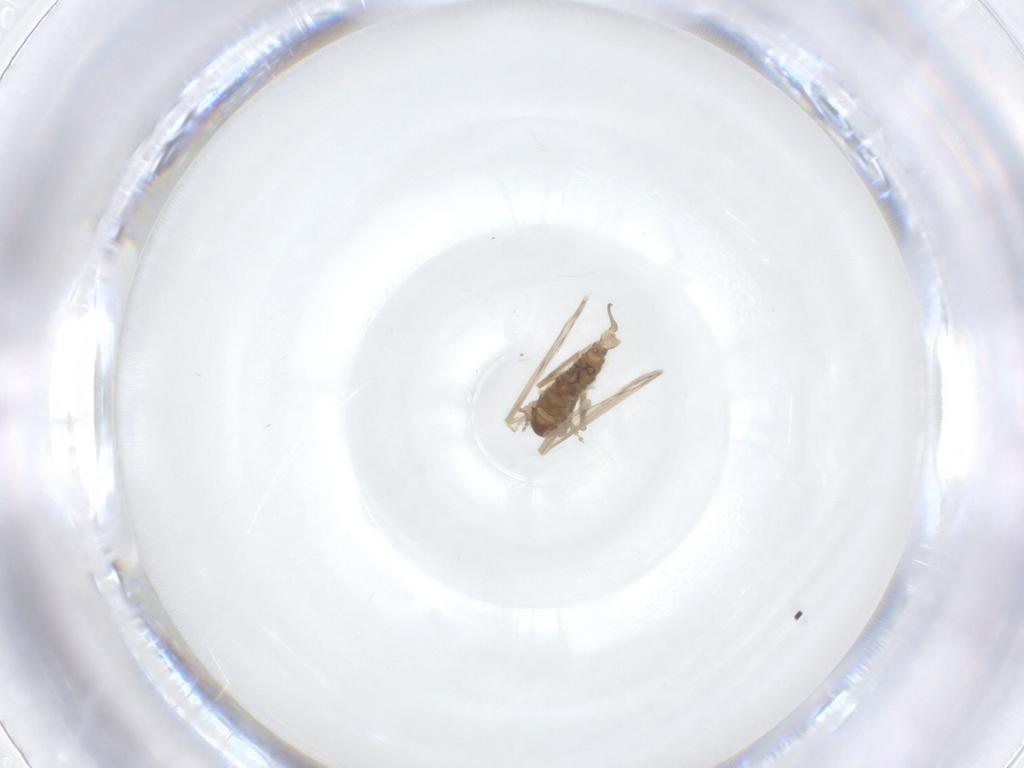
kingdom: Animalia
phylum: Arthropoda
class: Insecta
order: Diptera
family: Psychodidae
